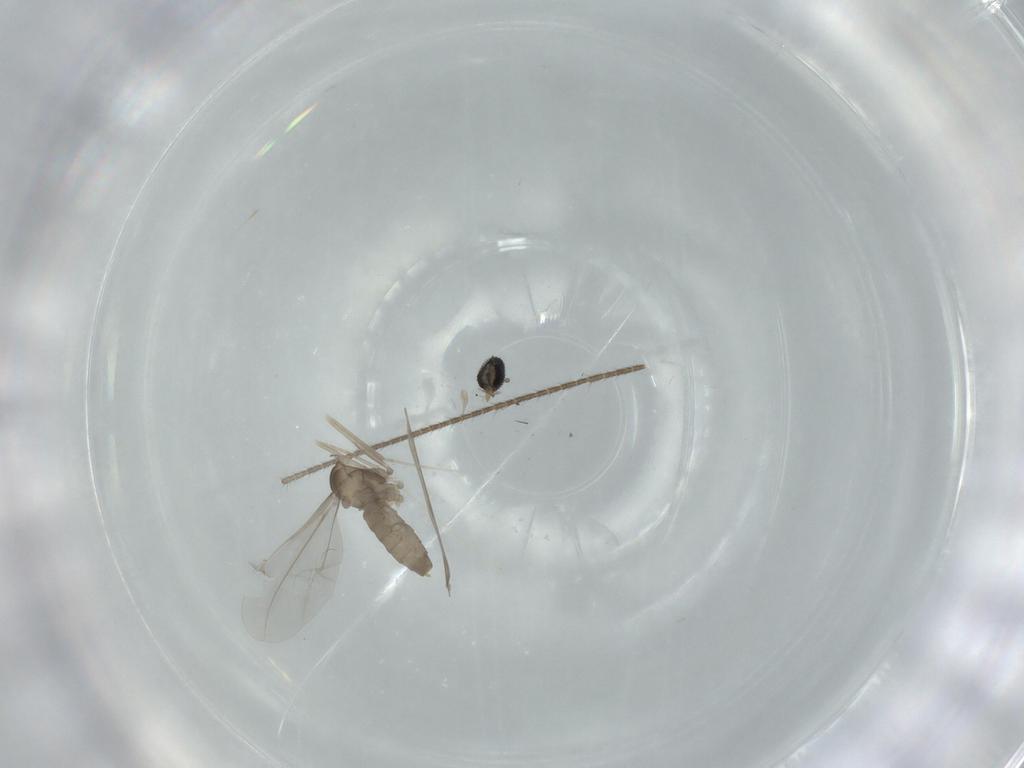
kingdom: Animalia
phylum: Arthropoda
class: Insecta
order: Diptera
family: Cecidomyiidae
